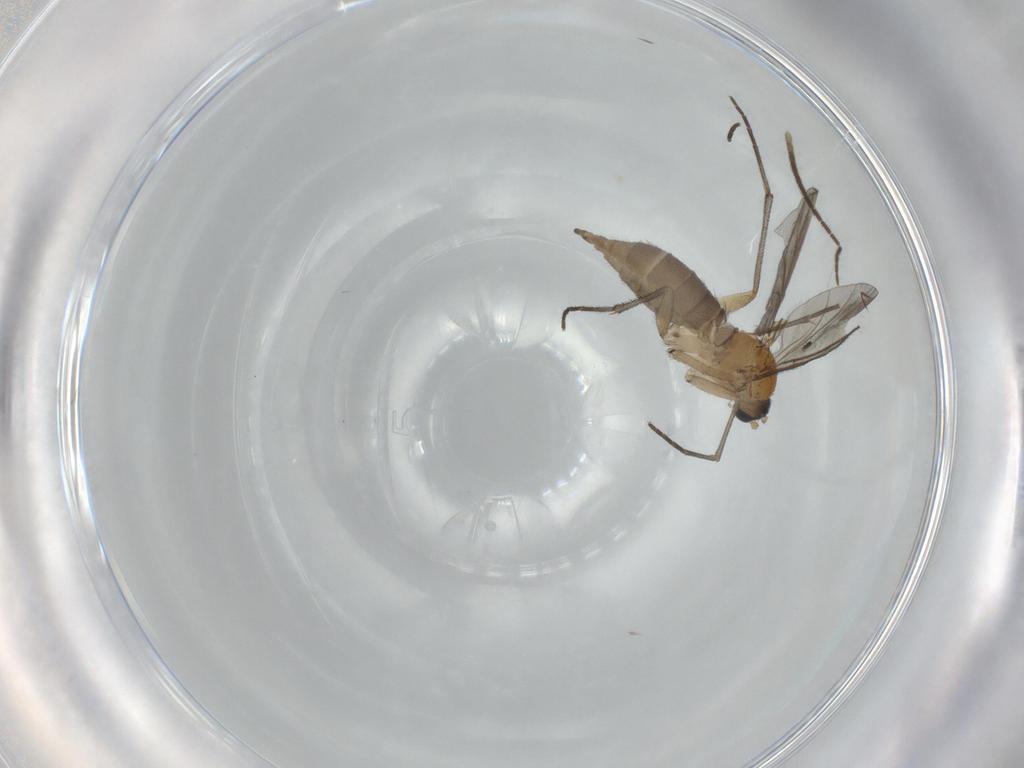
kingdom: Animalia
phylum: Arthropoda
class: Insecta
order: Diptera
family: Sciaridae
